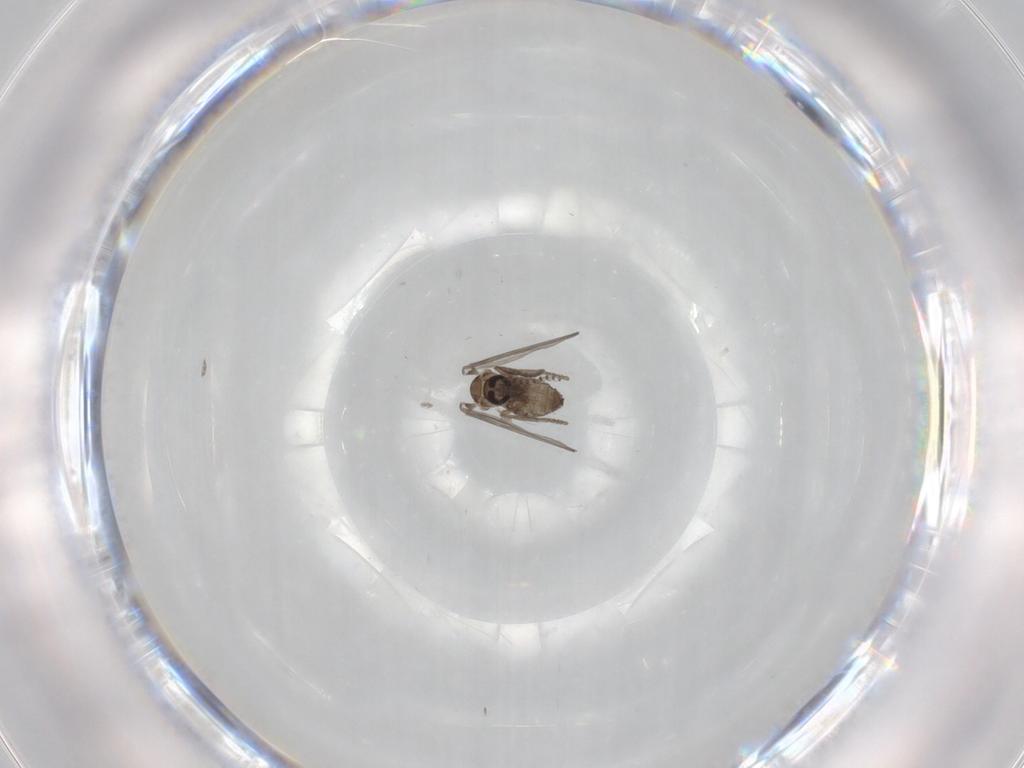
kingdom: Animalia
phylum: Arthropoda
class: Insecta
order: Diptera
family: Psychodidae
